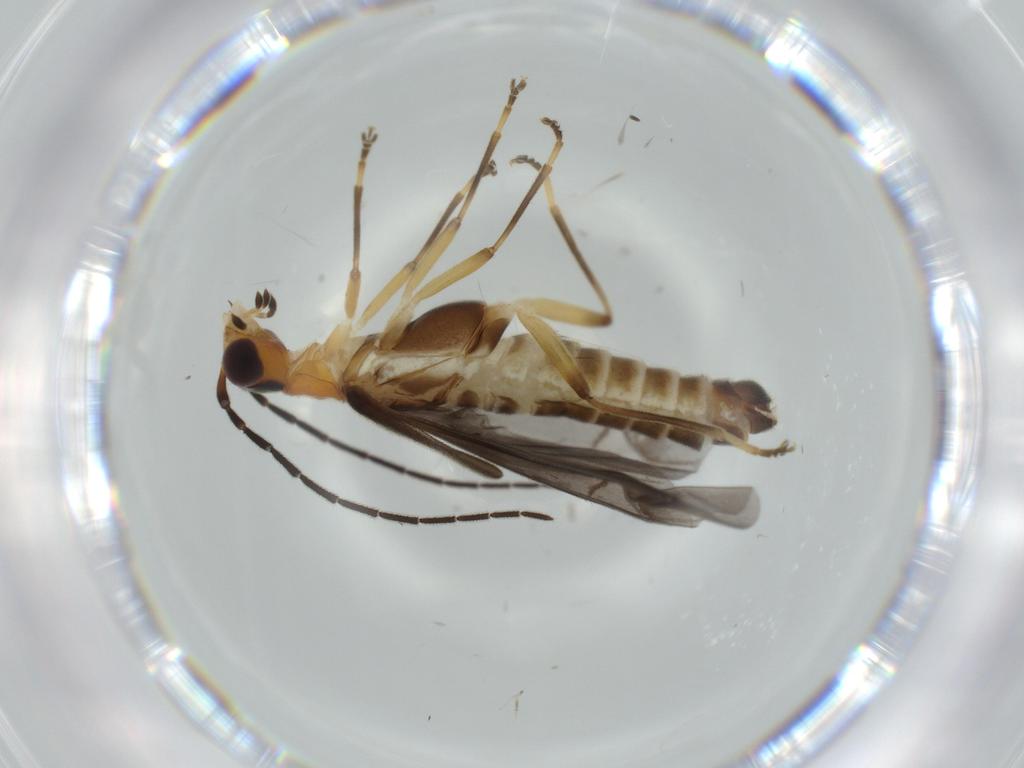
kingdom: Animalia
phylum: Arthropoda
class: Insecta
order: Coleoptera
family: Cantharidae
